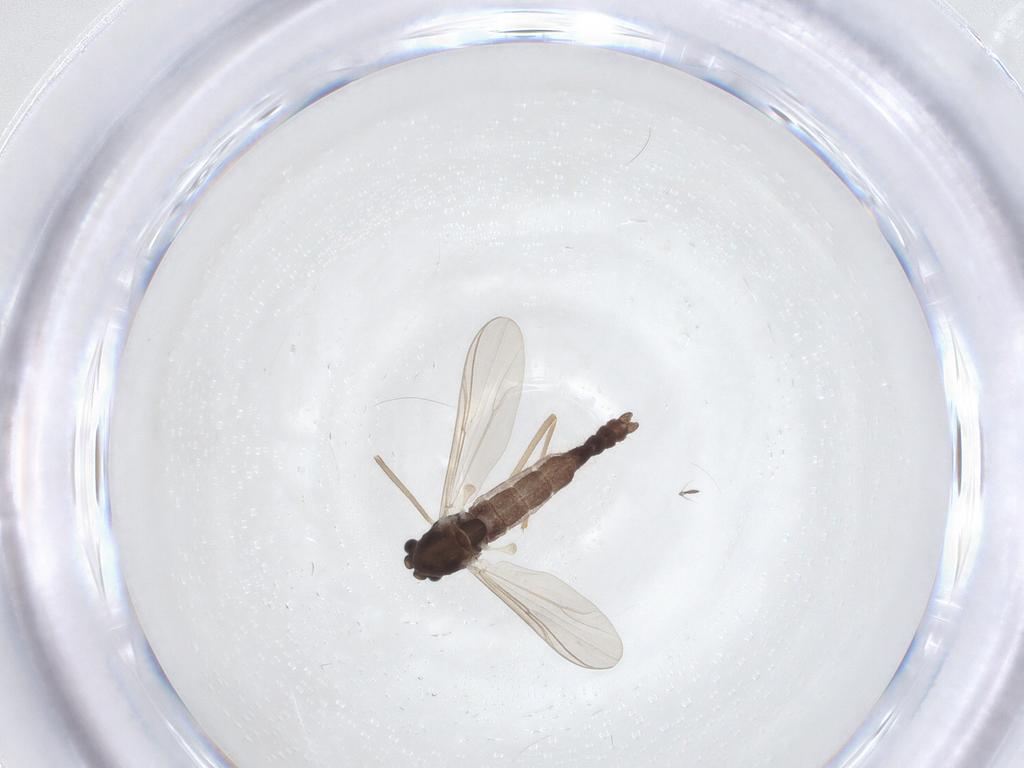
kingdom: Animalia
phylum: Arthropoda
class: Insecta
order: Diptera
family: Chironomidae
